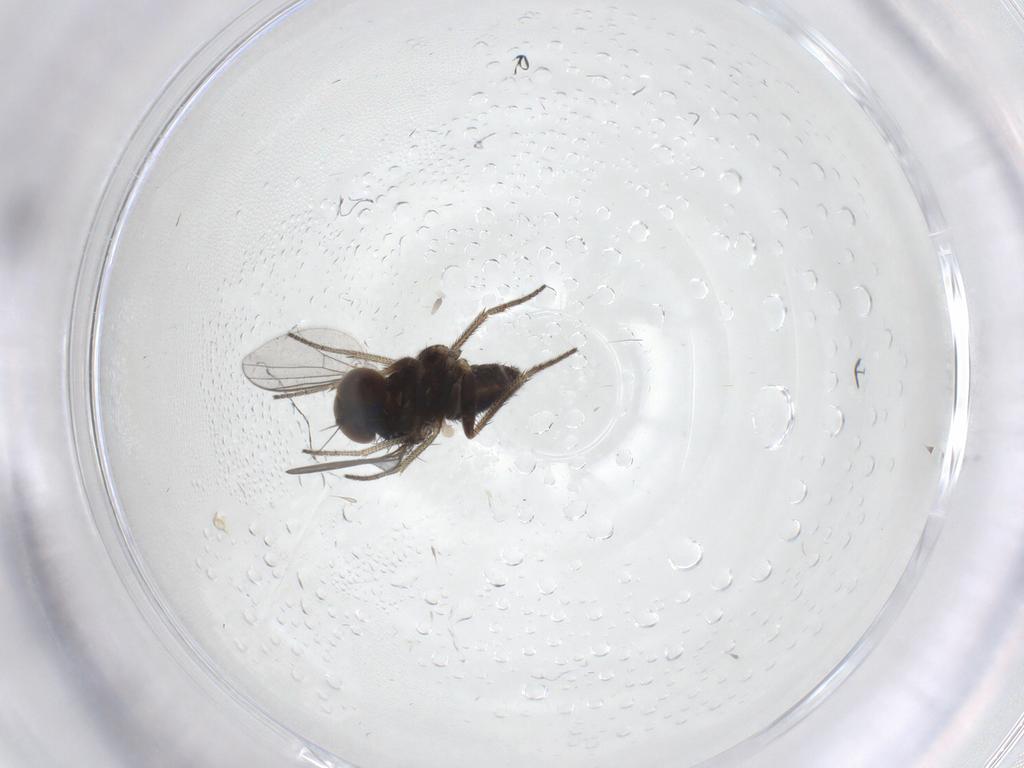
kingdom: Animalia
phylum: Arthropoda
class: Insecta
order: Diptera
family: Dolichopodidae
